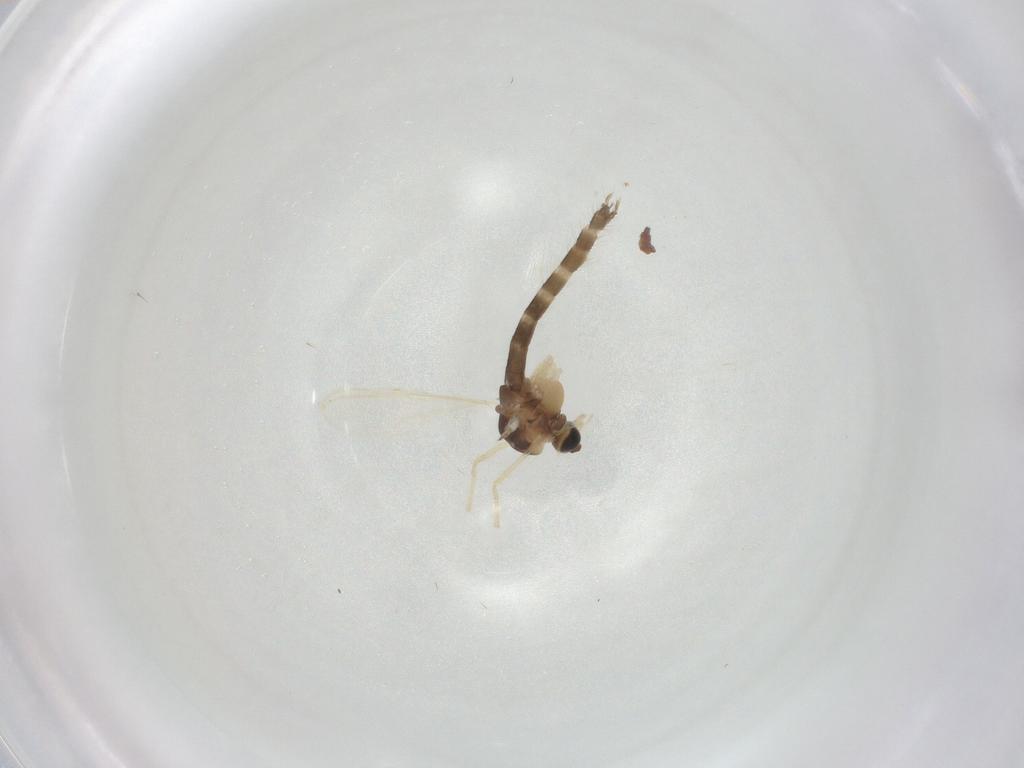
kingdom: Animalia
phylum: Arthropoda
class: Insecta
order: Diptera
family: Chironomidae
